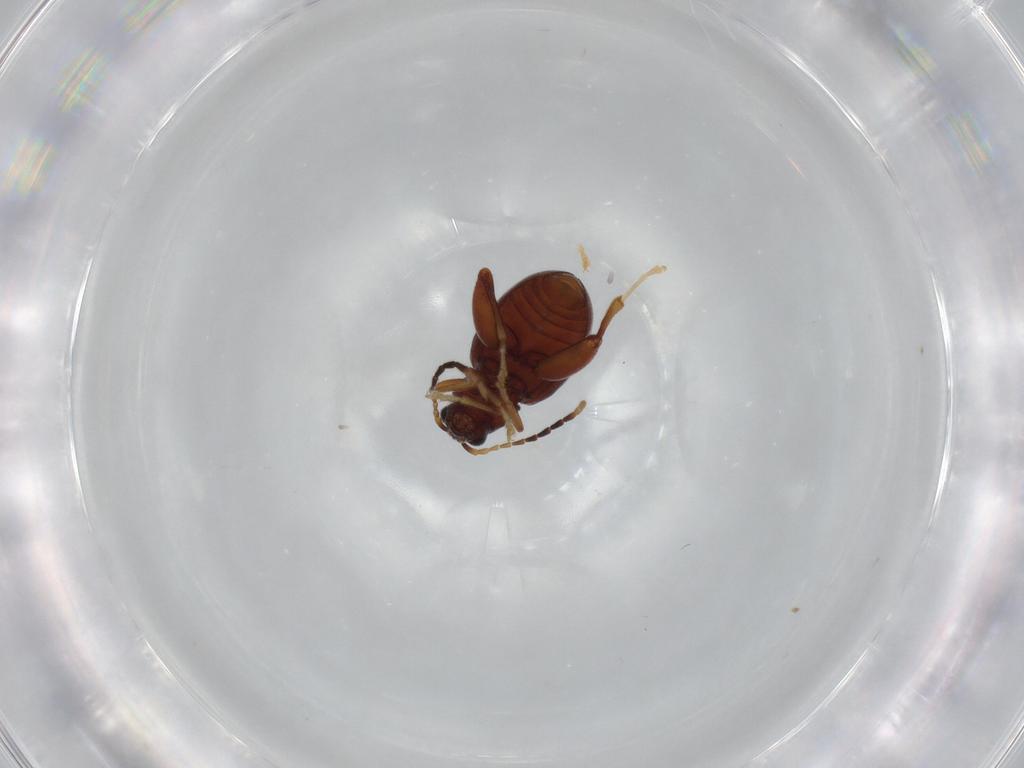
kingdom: Animalia
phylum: Arthropoda
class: Insecta
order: Coleoptera
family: Chrysomelidae
